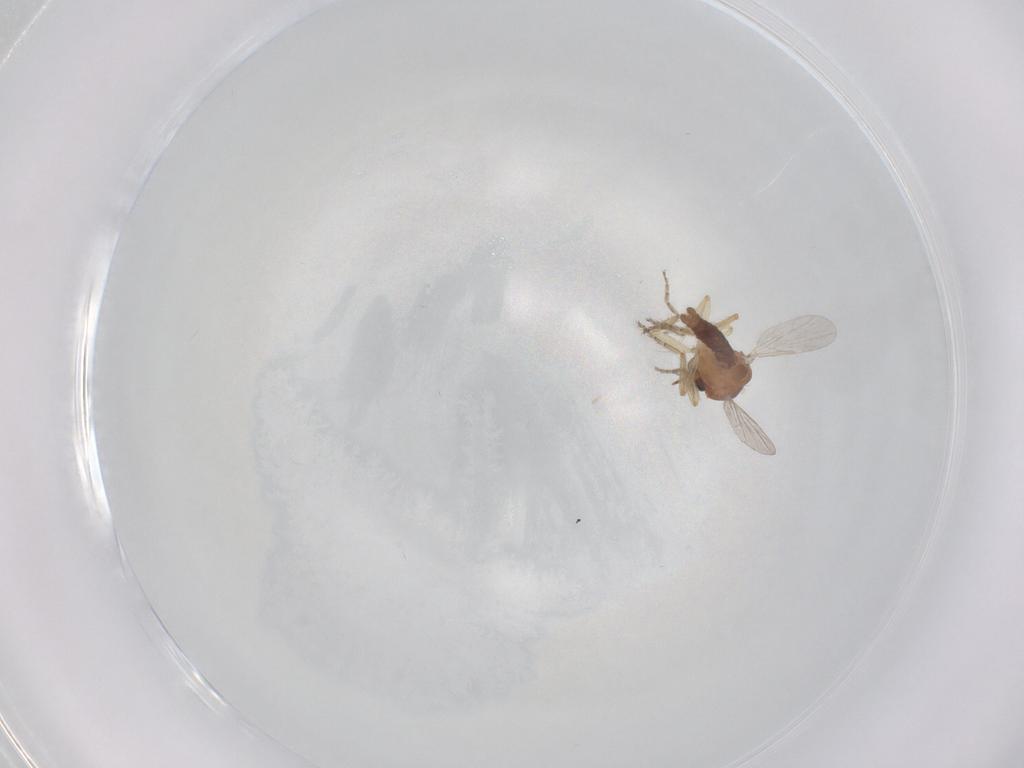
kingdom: Animalia
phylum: Arthropoda
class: Insecta
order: Diptera
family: Ceratopogonidae
